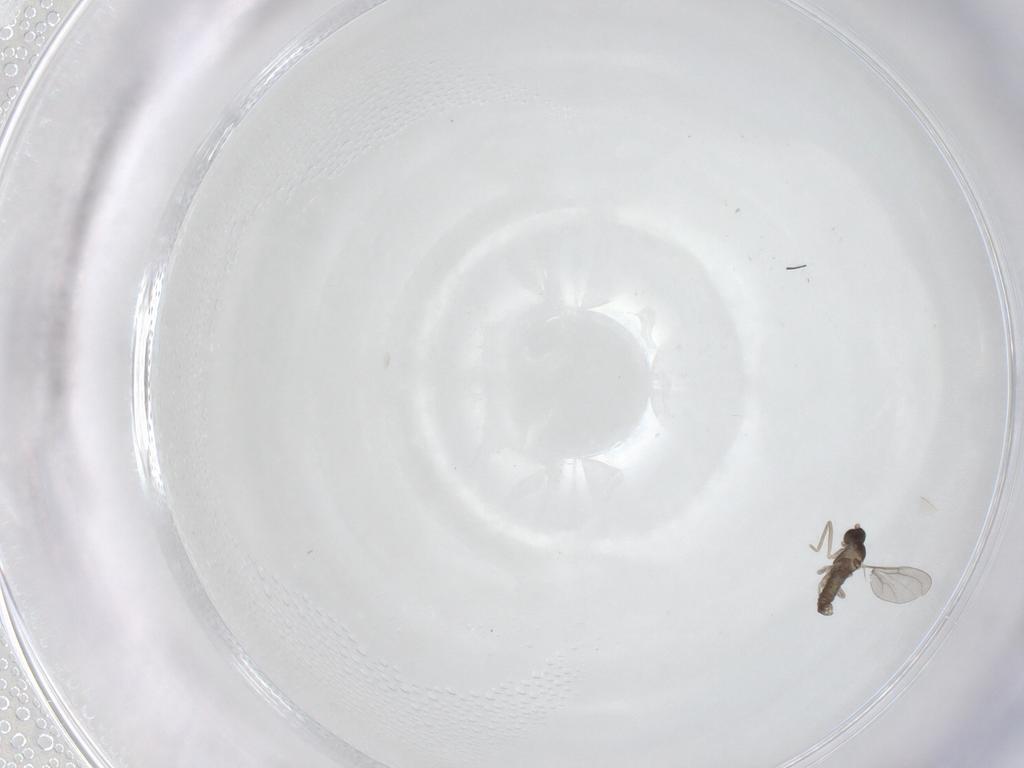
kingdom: Animalia
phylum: Arthropoda
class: Insecta
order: Diptera
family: Cecidomyiidae
